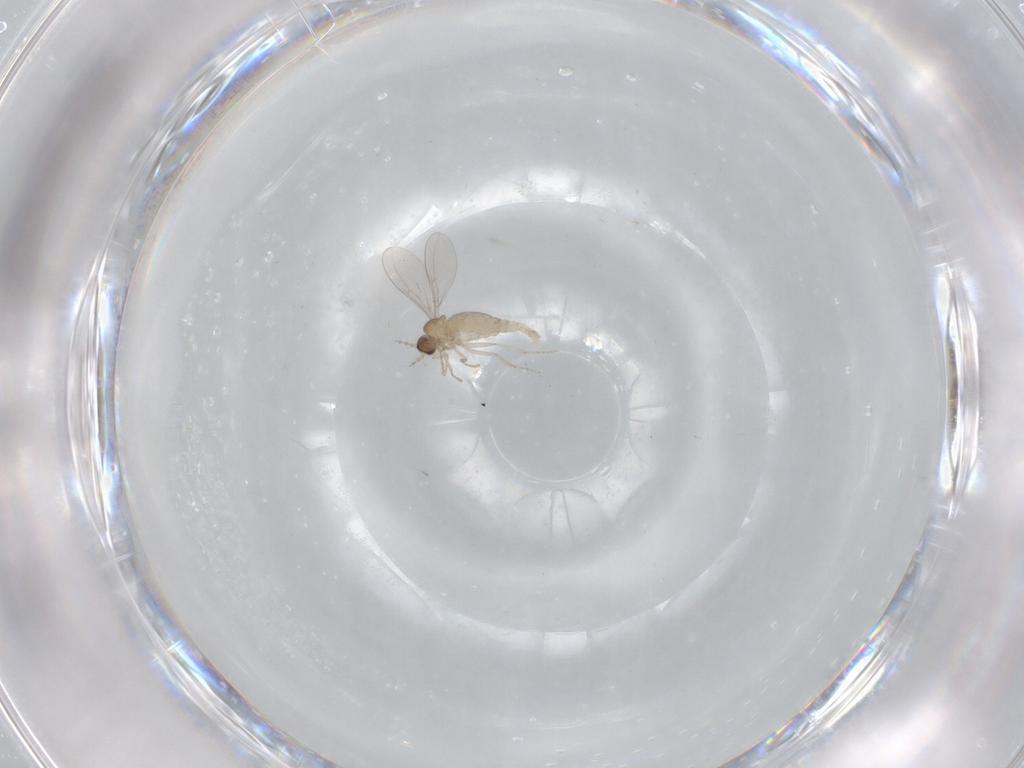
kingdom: Animalia
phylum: Arthropoda
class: Insecta
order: Diptera
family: Cecidomyiidae
